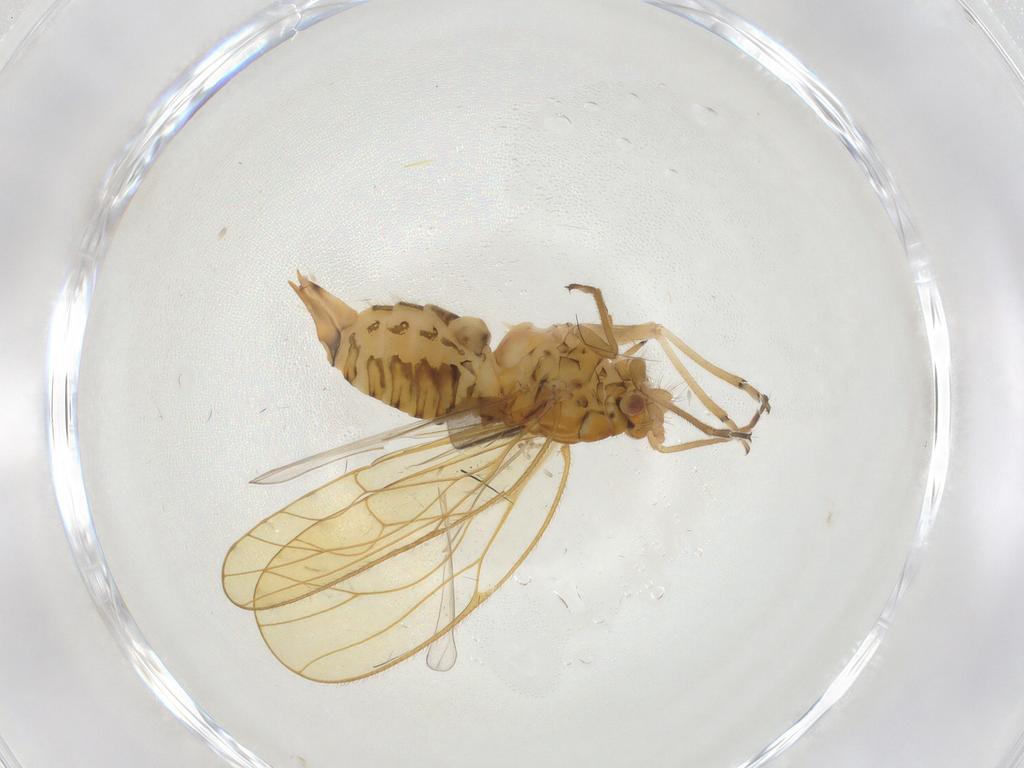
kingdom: Animalia
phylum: Arthropoda
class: Insecta
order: Hemiptera
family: Psyllidae
